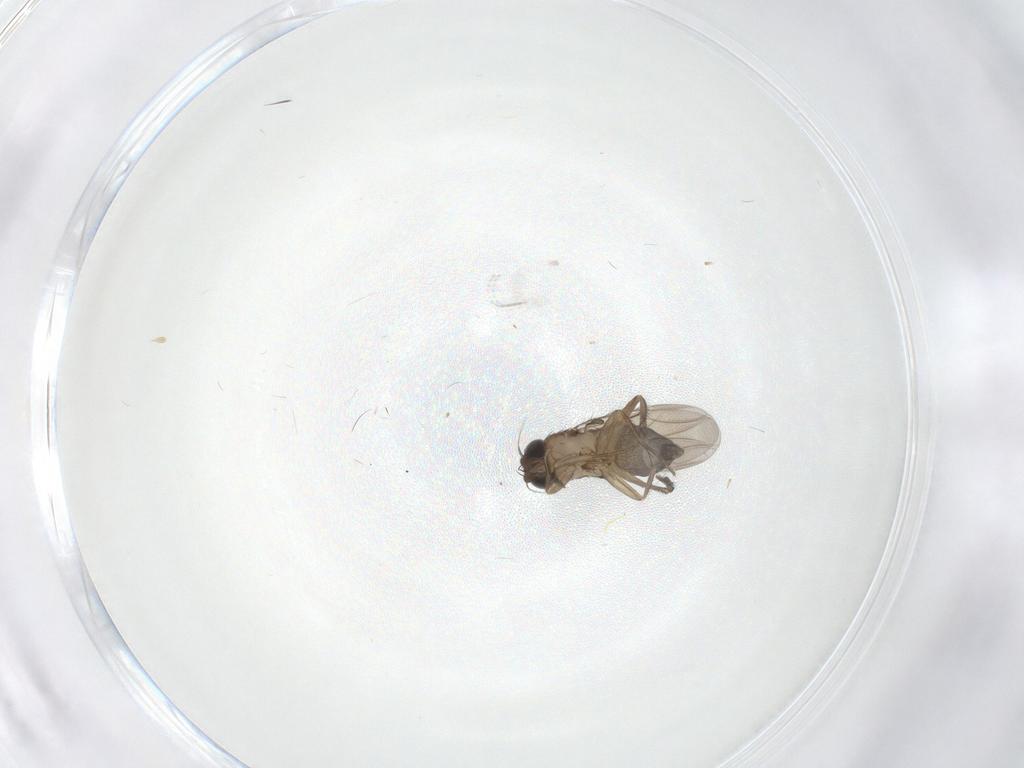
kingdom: Animalia
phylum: Arthropoda
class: Insecta
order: Diptera
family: Phoridae
